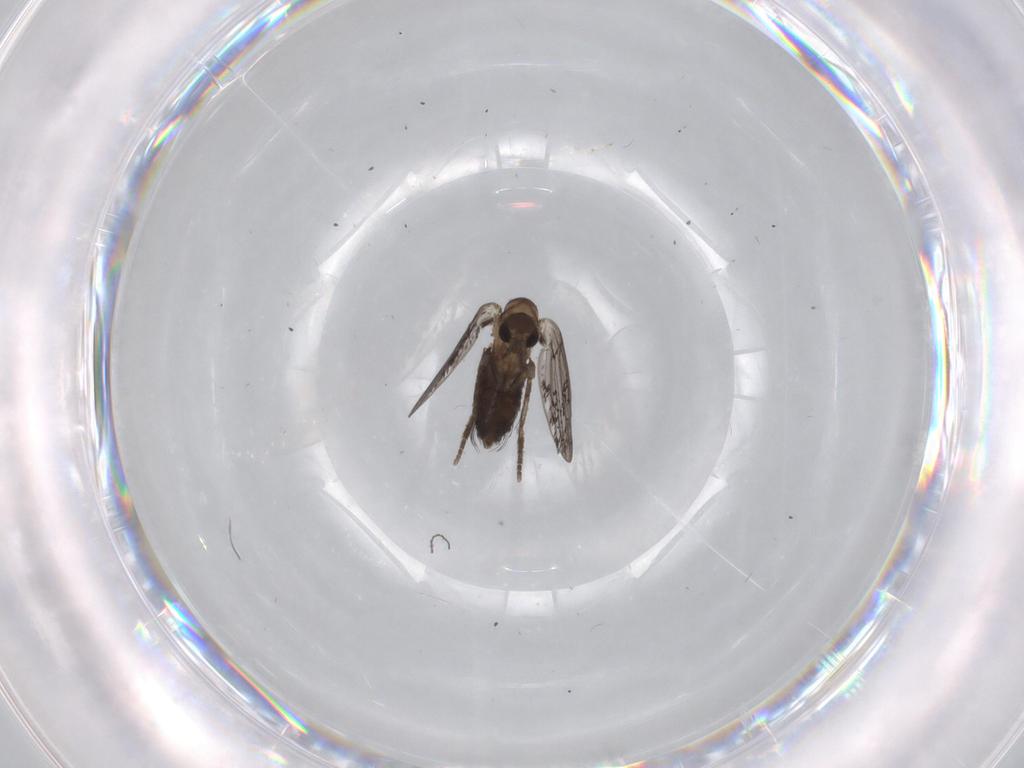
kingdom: Animalia
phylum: Arthropoda
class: Insecta
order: Diptera
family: Psychodidae
